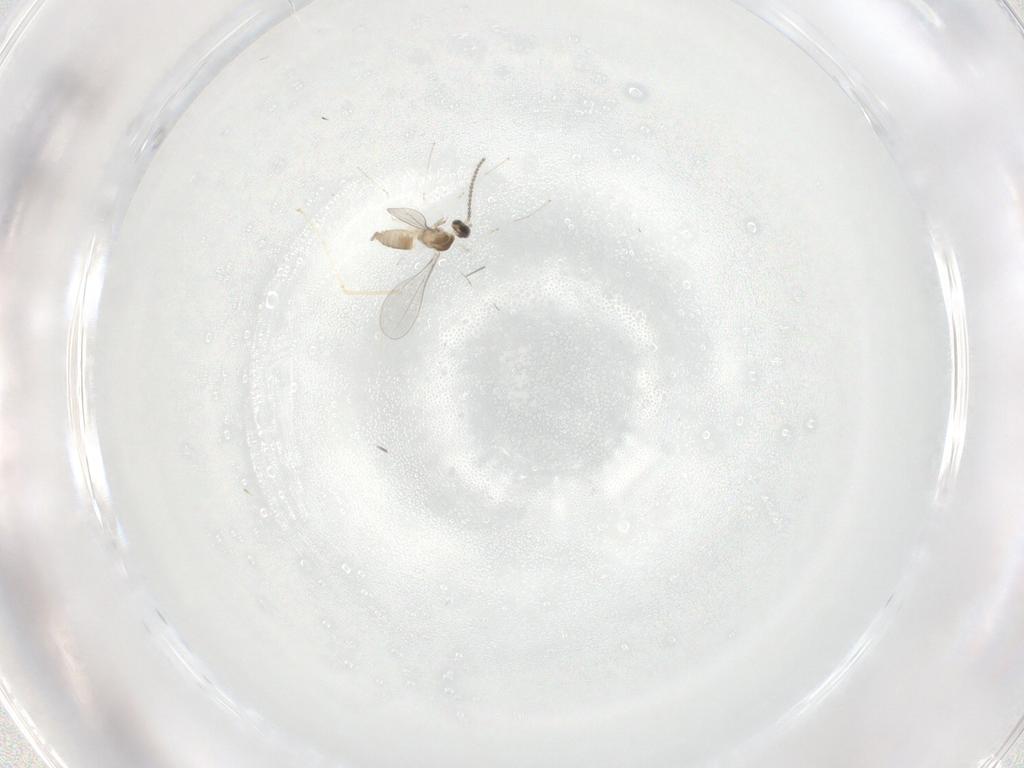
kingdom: Animalia
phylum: Arthropoda
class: Insecta
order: Diptera
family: Cecidomyiidae
